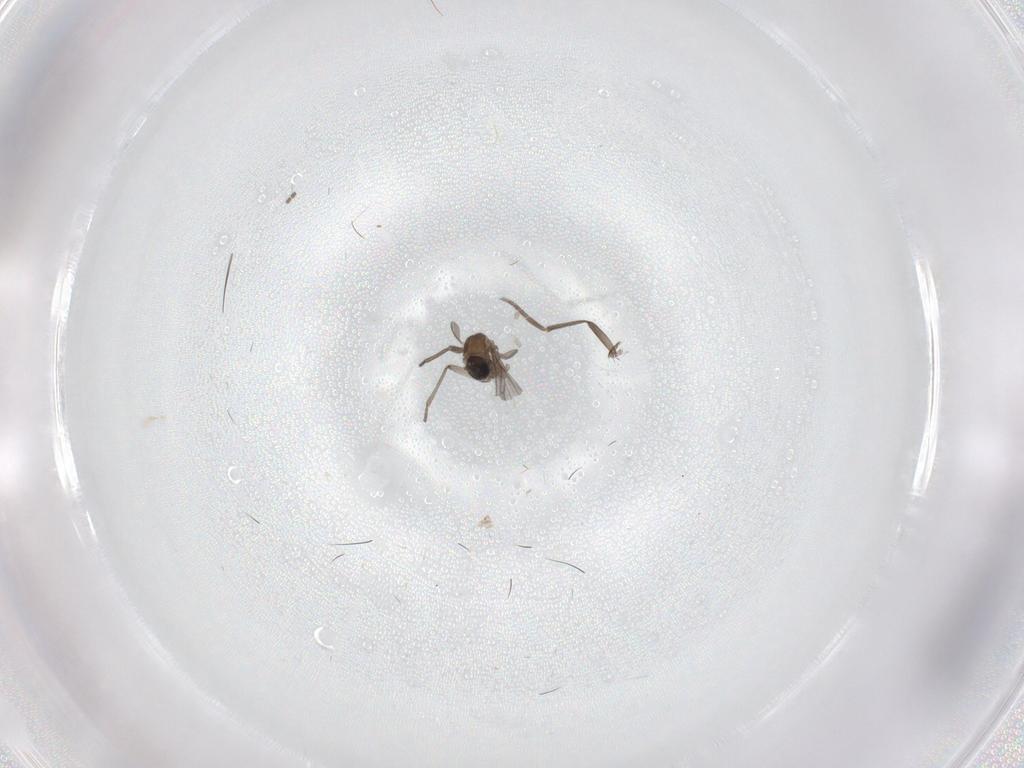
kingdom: Animalia
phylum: Arthropoda
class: Insecta
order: Diptera
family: Sciaridae
